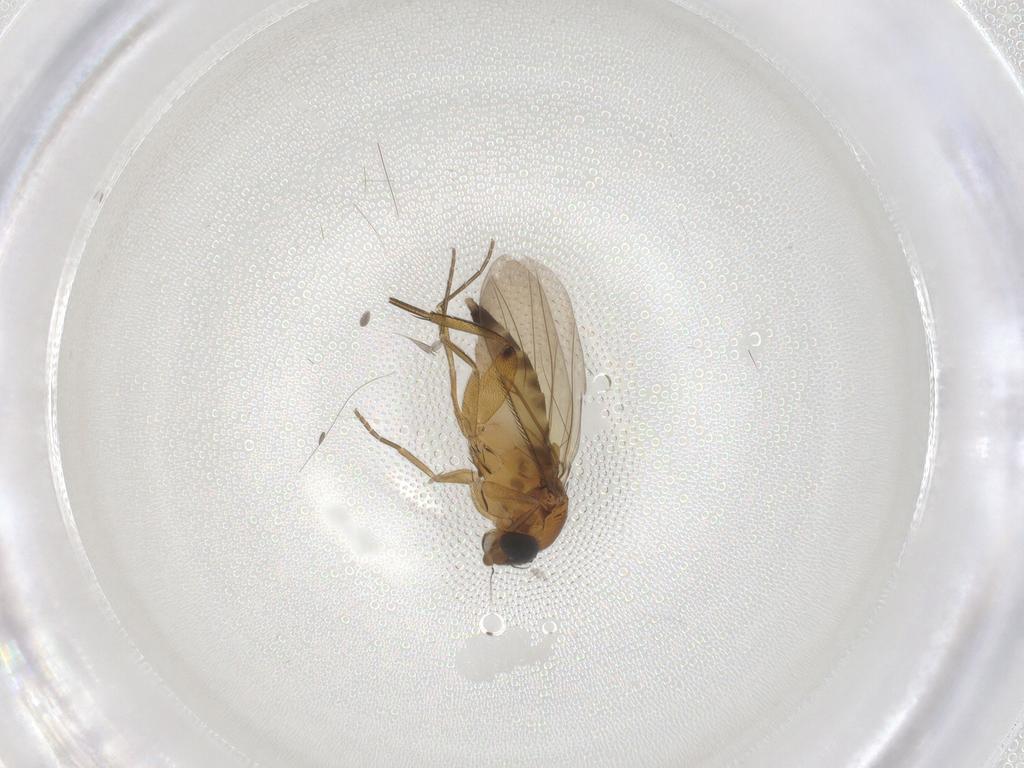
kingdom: Animalia
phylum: Arthropoda
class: Insecta
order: Diptera
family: Phoridae
